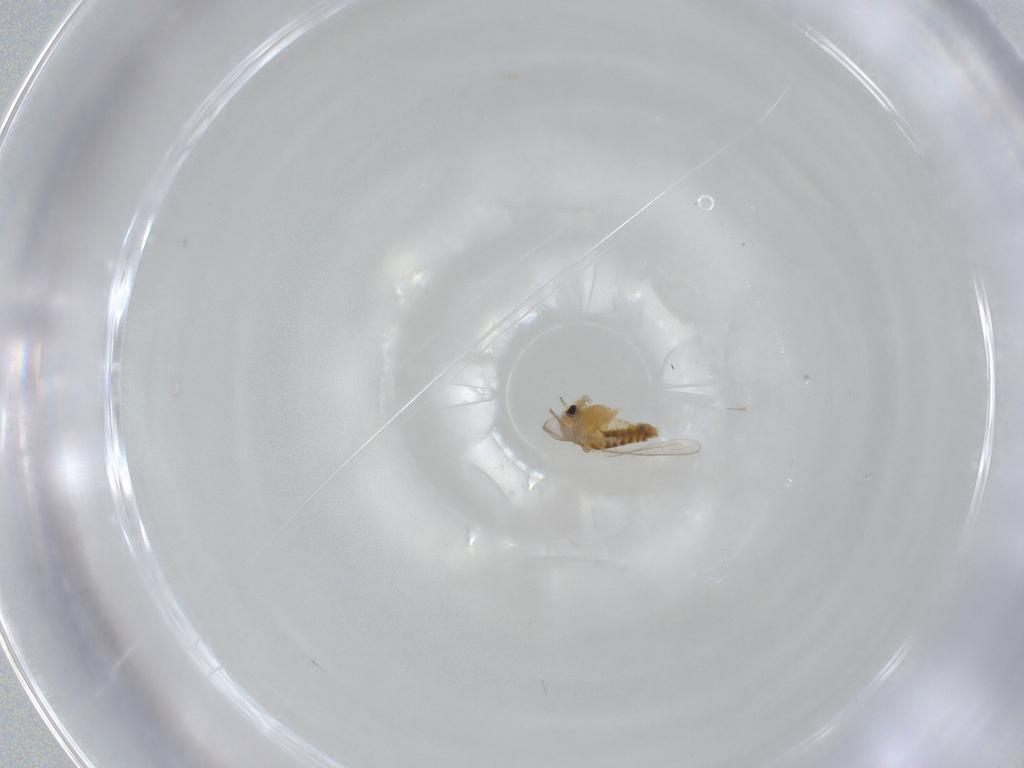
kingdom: Animalia
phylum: Arthropoda
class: Insecta
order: Diptera
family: Chironomidae
